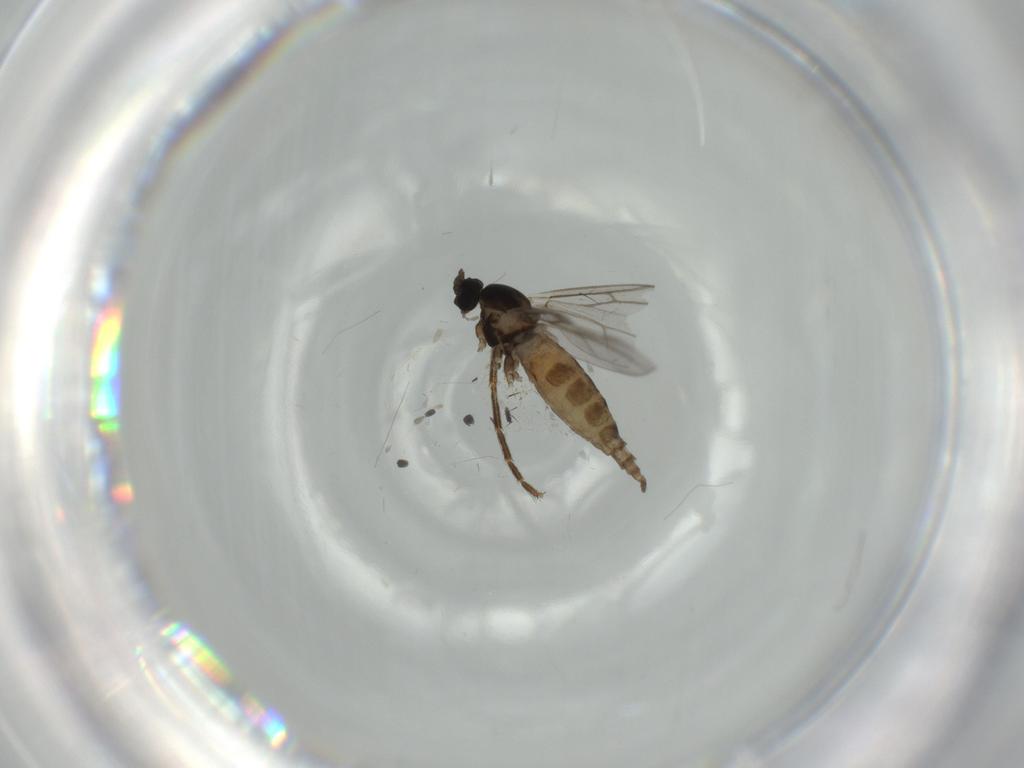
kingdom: Animalia
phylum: Arthropoda
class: Insecta
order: Diptera
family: Cecidomyiidae
